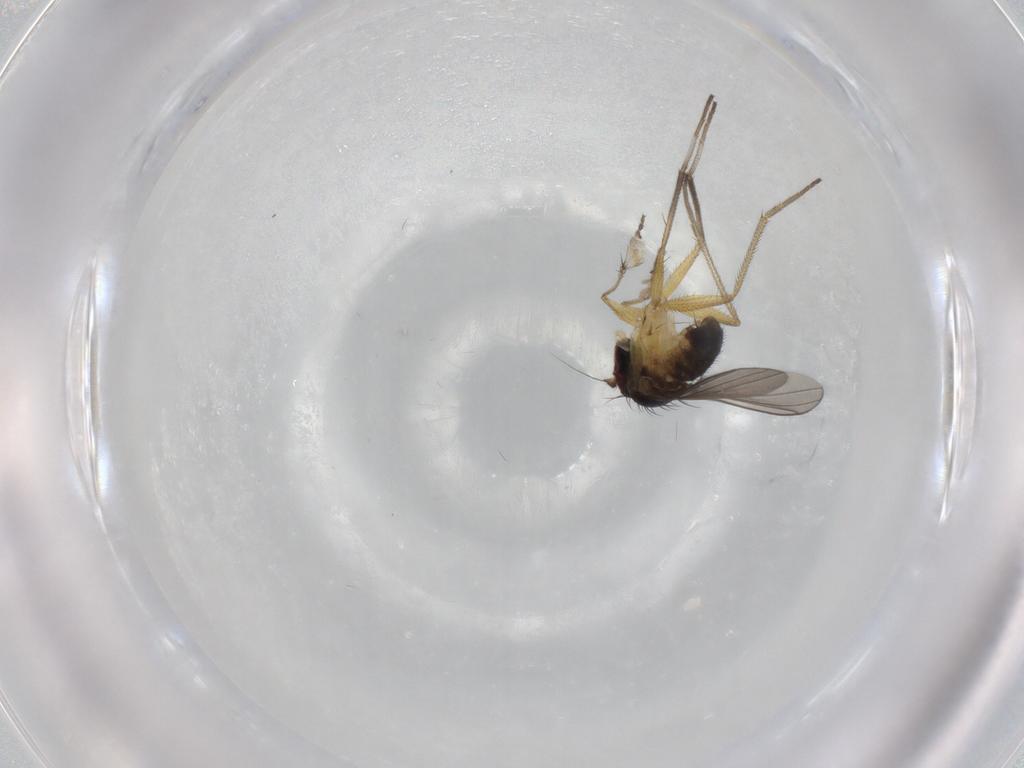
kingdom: Animalia
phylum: Arthropoda
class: Insecta
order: Diptera
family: Dolichopodidae
